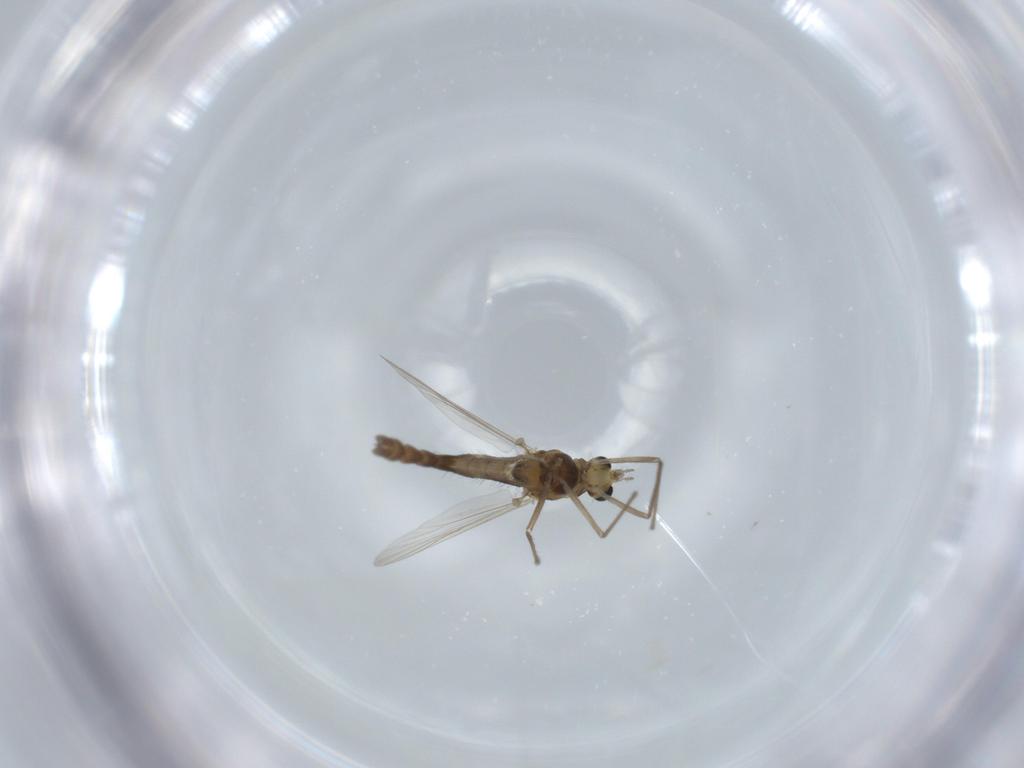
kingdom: Animalia
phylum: Arthropoda
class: Insecta
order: Diptera
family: Chironomidae
